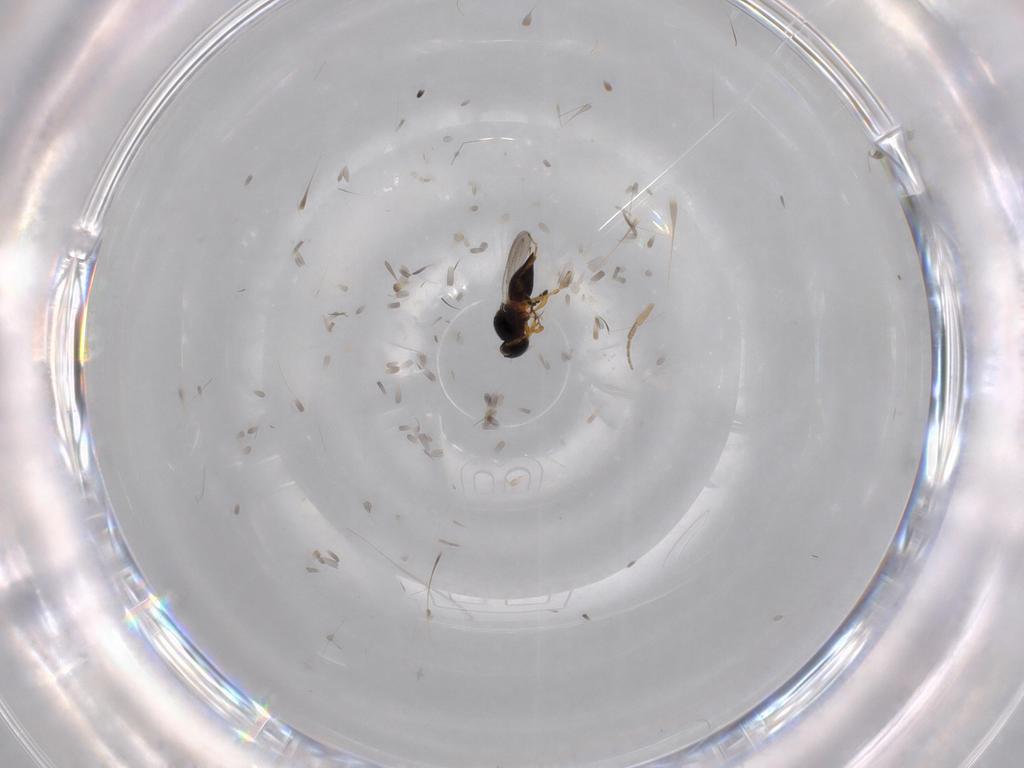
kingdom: Animalia
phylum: Arthropoda
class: Insecta
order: Hymenoptera
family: Platygastridae
